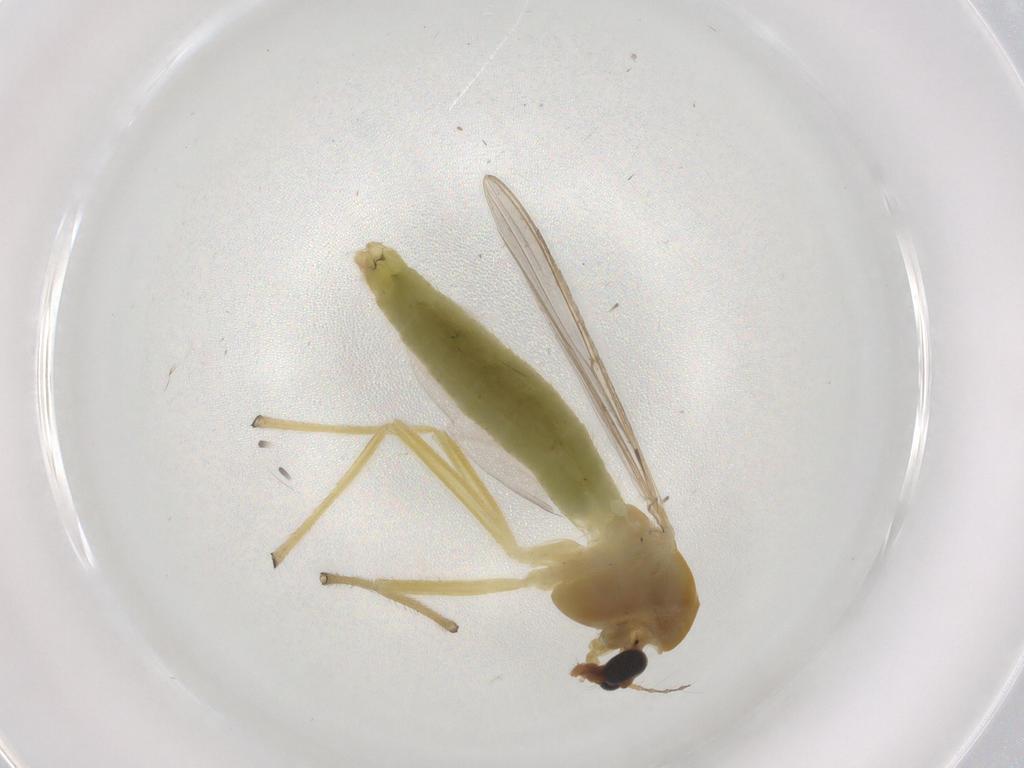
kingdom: Animalia
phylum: Arthropoda
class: Insecta
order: Diptera
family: Chironomidae
